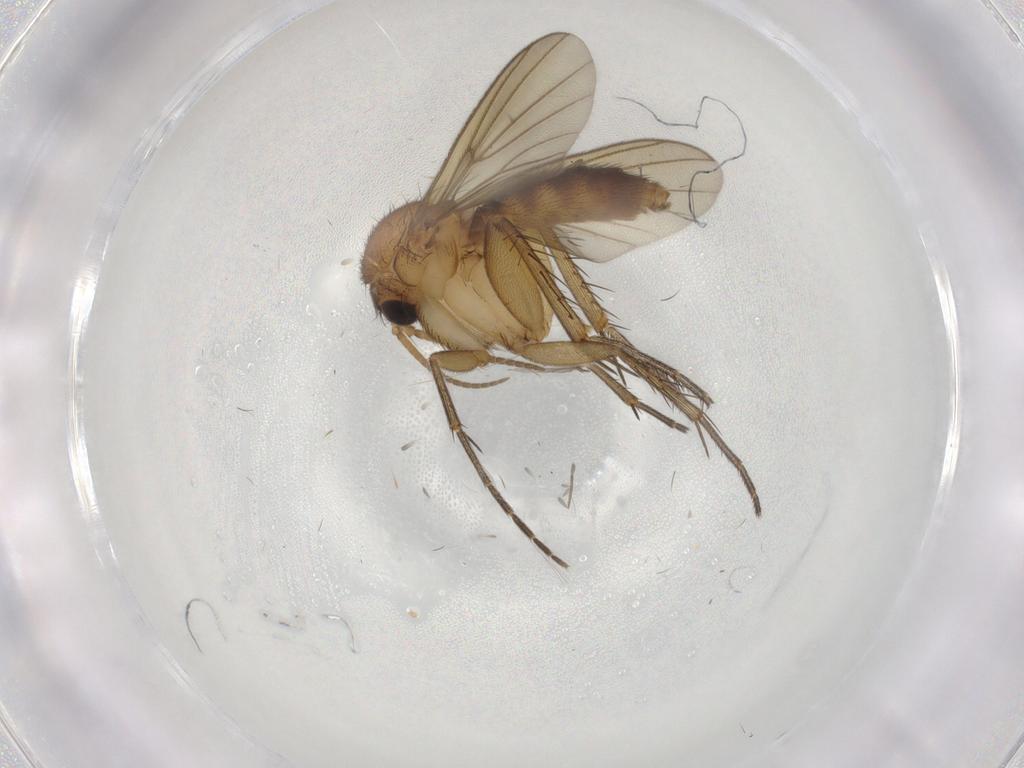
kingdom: Animalia
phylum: Arthropoda
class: Insecta
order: Diptera
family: Mycetophilidae
